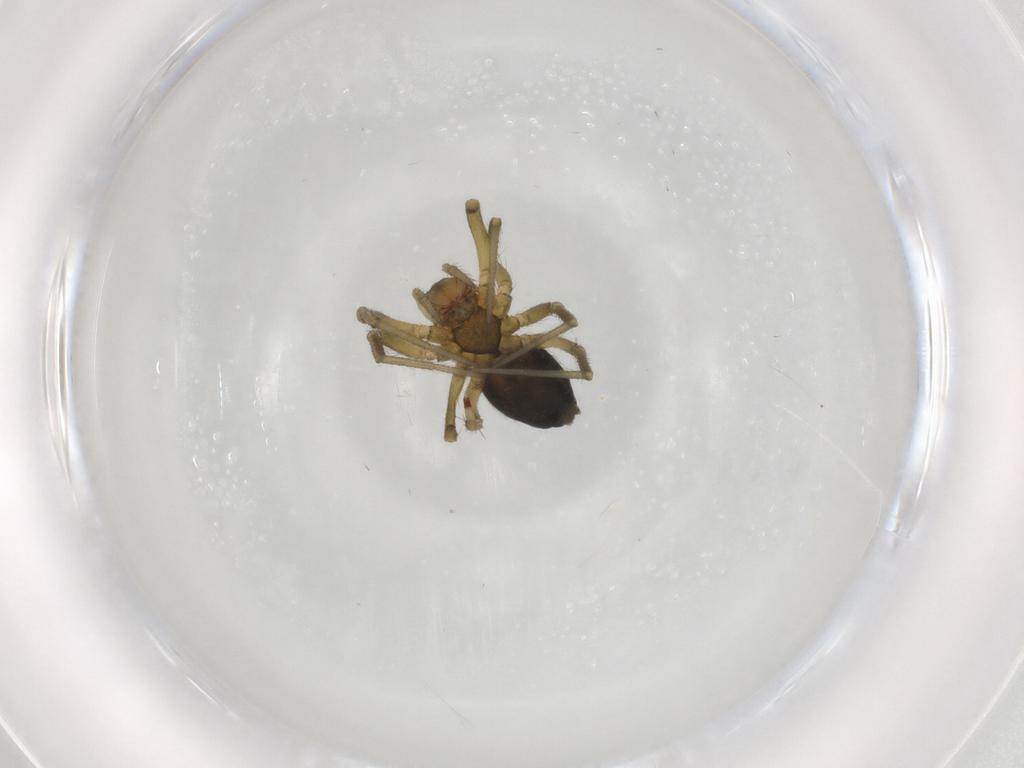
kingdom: Animalia
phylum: Arthropoda
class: Arachnida
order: Araneae
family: Linyphiidae
